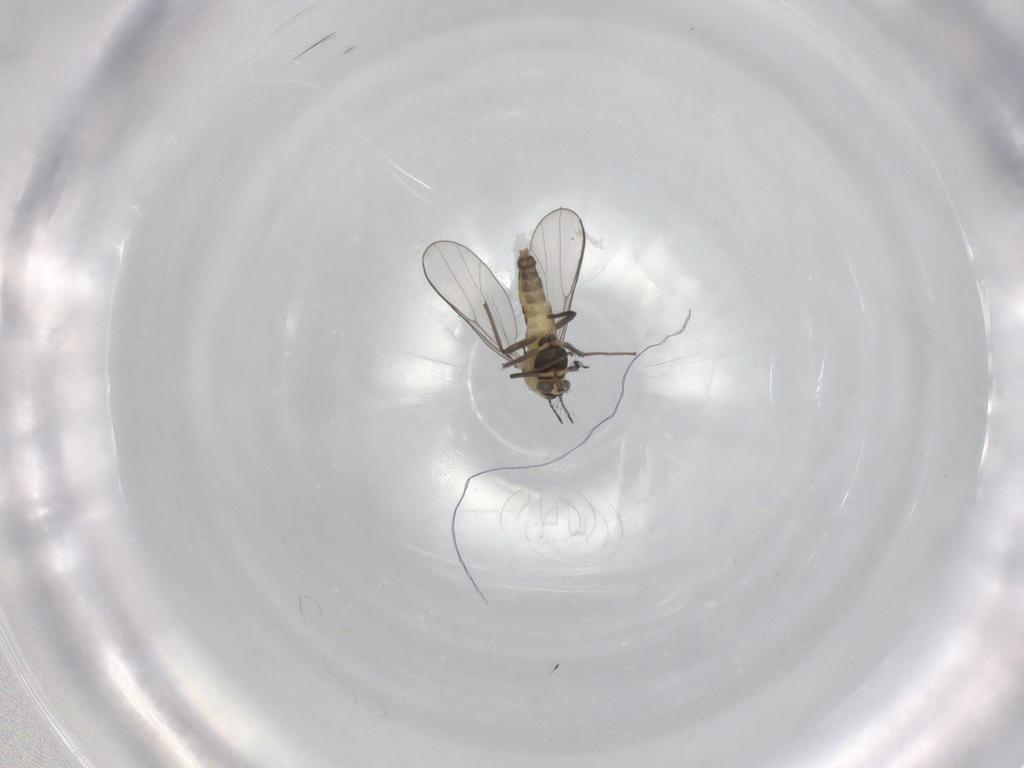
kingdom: Animalia
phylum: Arthropoda
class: Insecta
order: Diptera
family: Chironomidae
